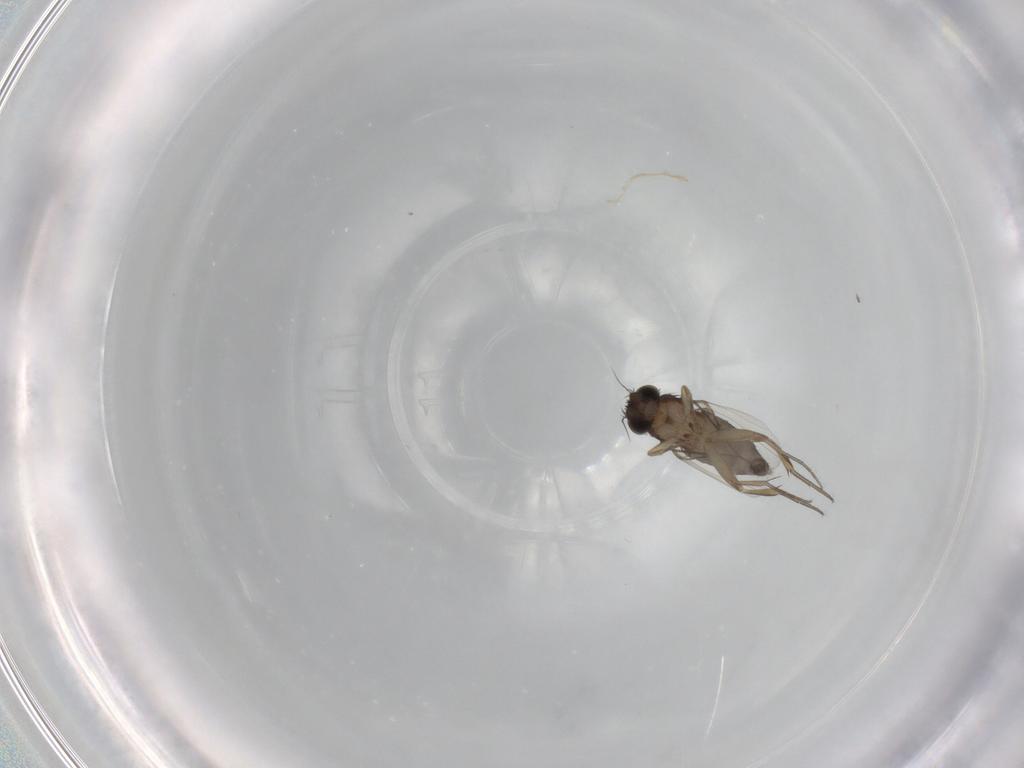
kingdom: Animalia
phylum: Arthropoda
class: Insecta
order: Diptera
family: Phoridae
